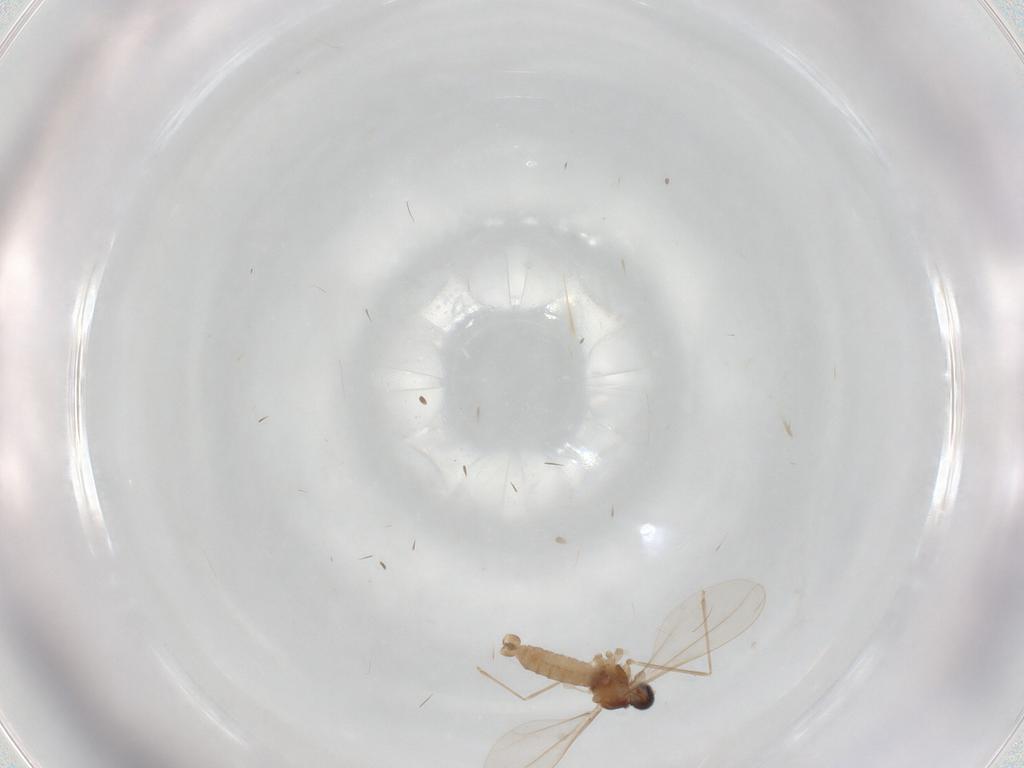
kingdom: Animalia
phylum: Arthropoda
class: Insecta
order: Diptera
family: Cecidomyiidae
